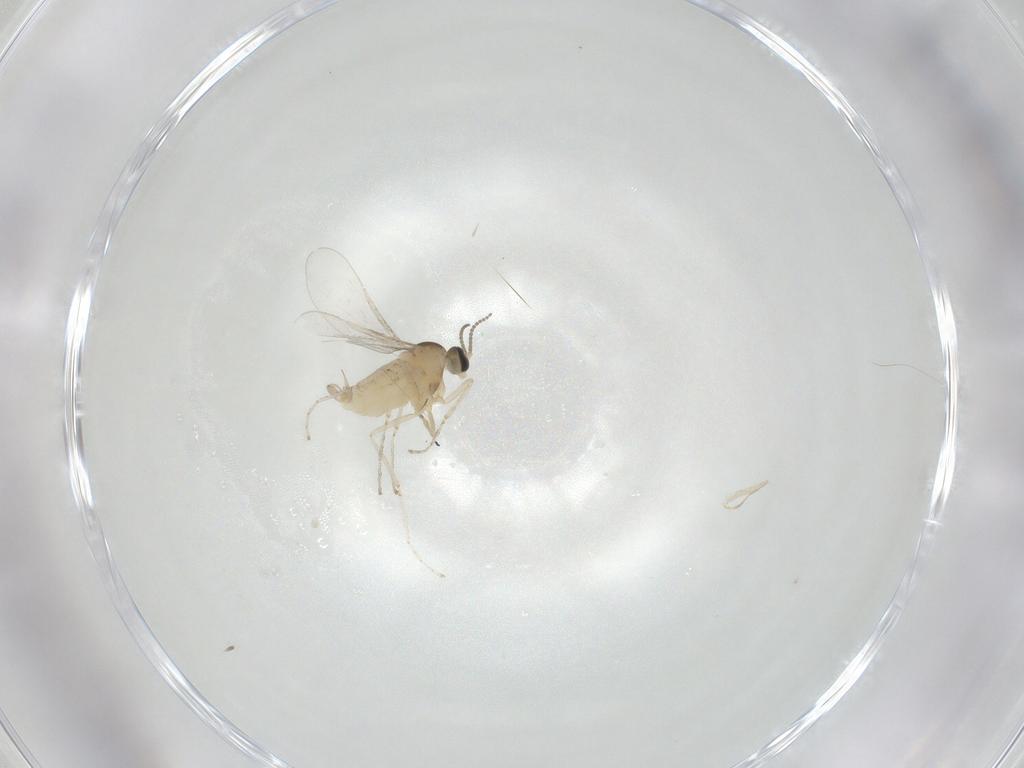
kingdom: Animalia
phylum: Arthropoda
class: Insecta
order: Diptera
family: Cecidomyiidae
